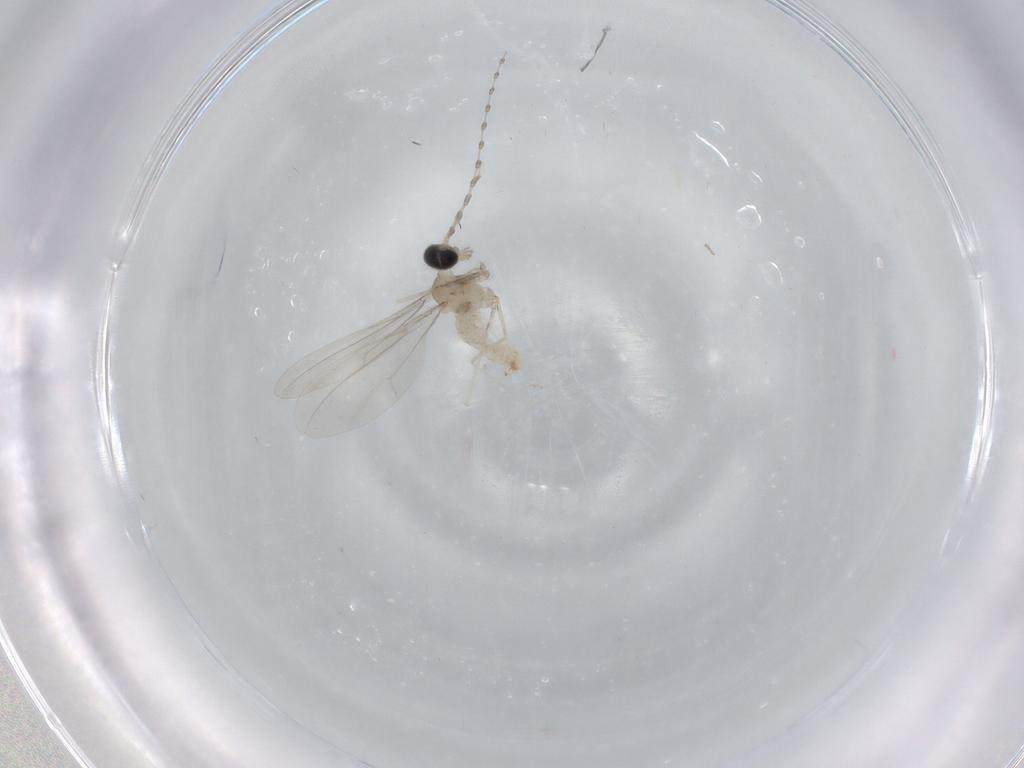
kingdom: Animalia
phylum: Arthropoda
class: Insecta
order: Diptera
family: Cecidomyiidae
